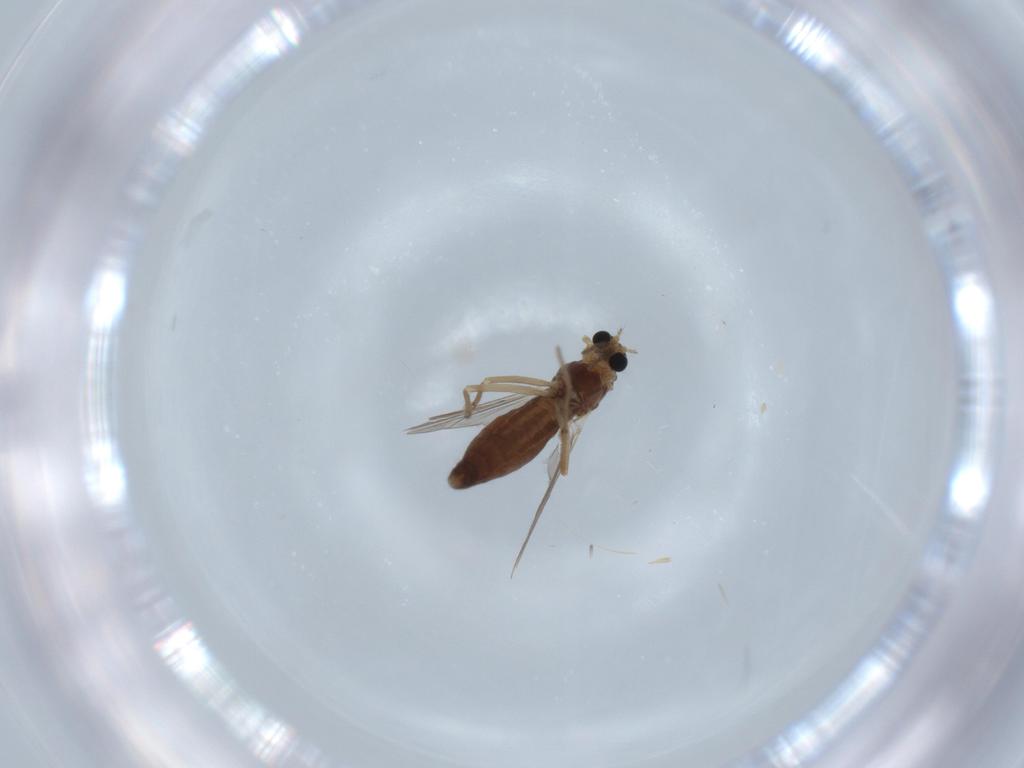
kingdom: Animalia
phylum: Arthropoda
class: Insecta
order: Diptera
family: Chironomidae
